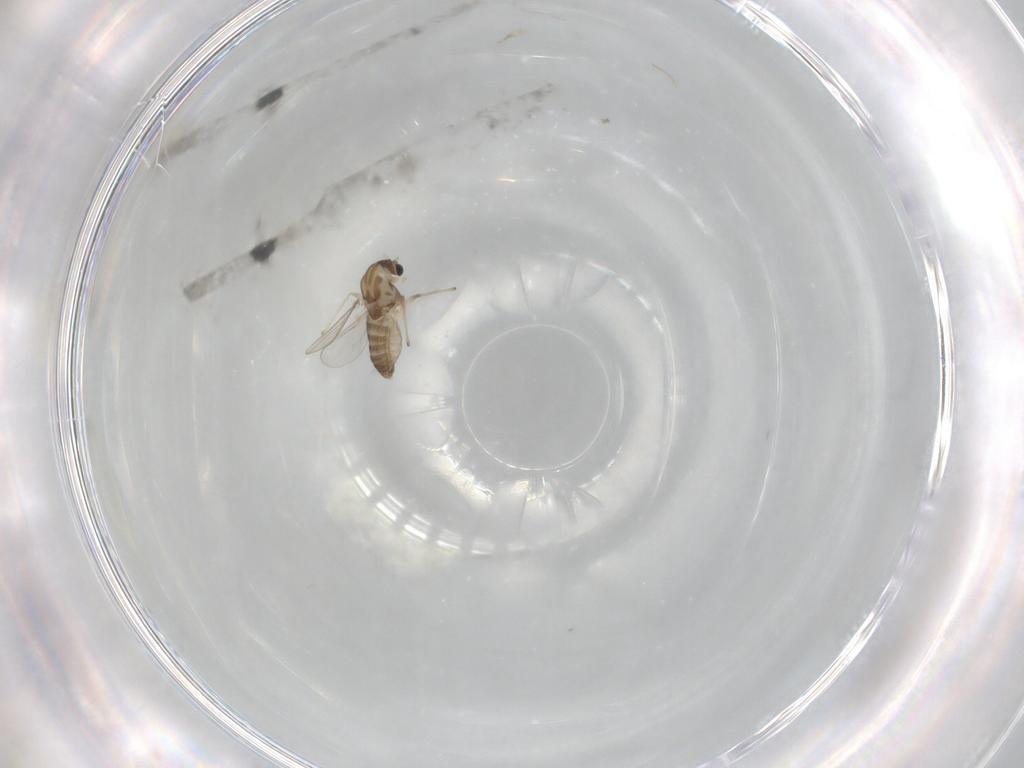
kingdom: Animalia
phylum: Arthropoda
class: Insecta
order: Diptera
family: Chironomidae
